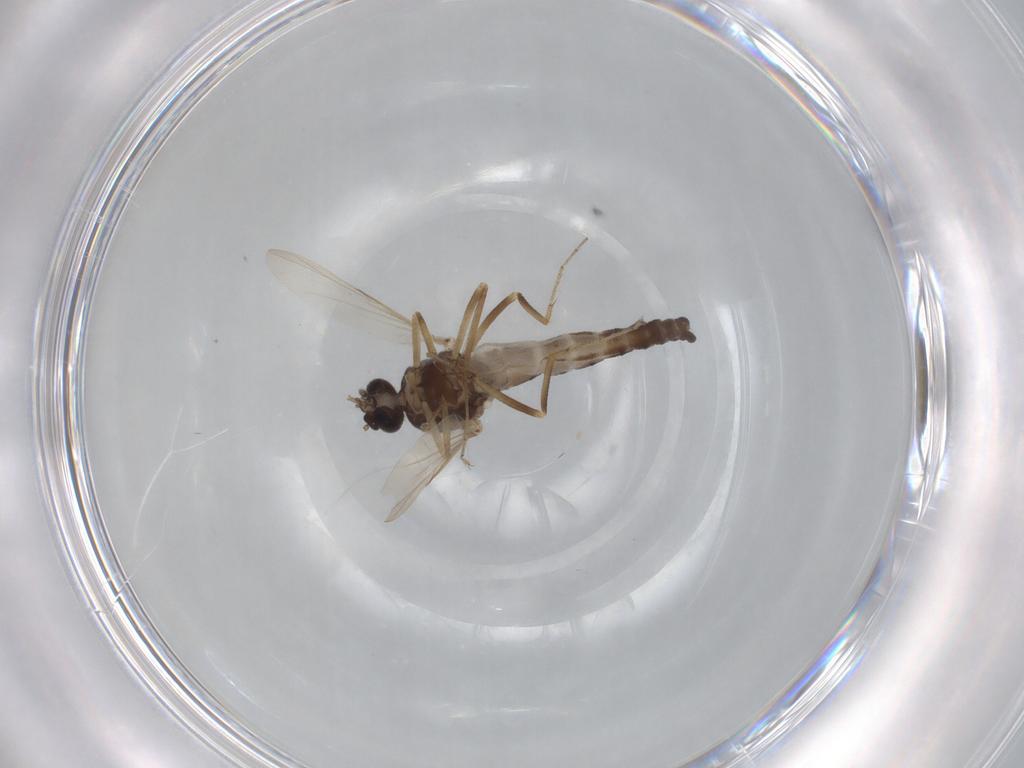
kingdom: Animalia
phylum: Arthropoda
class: Insecta
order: Diptera
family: Ceratopogonidae
